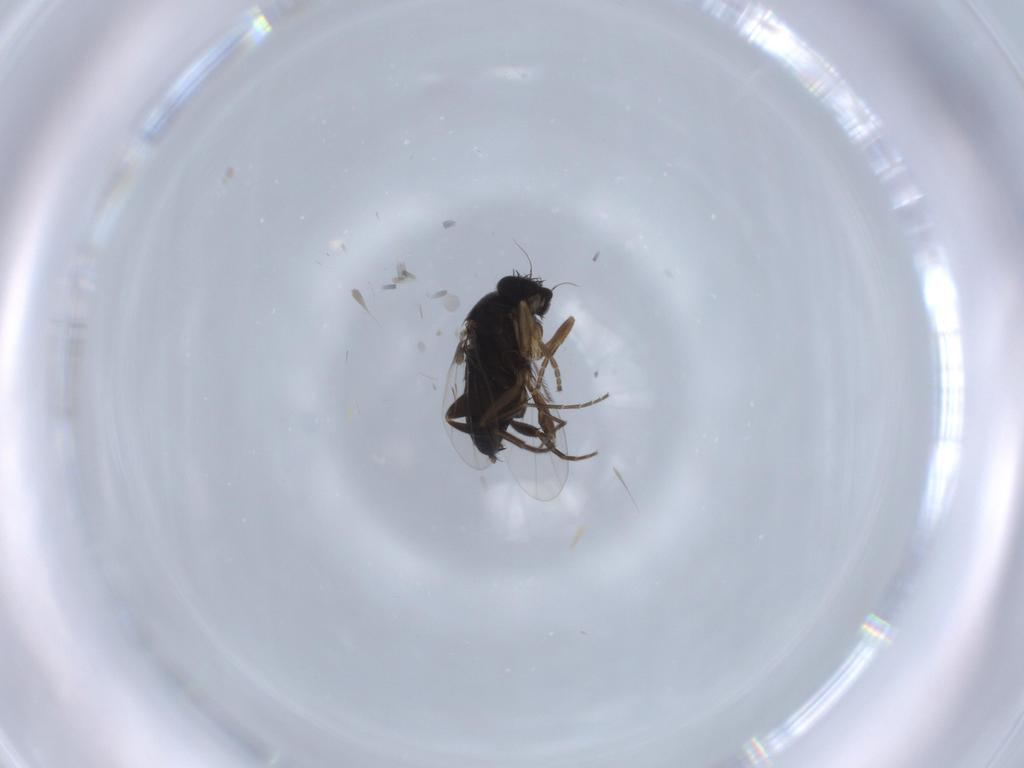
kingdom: Animalia
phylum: Arthropoda
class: Insecta
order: Diptera
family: Phoridae
